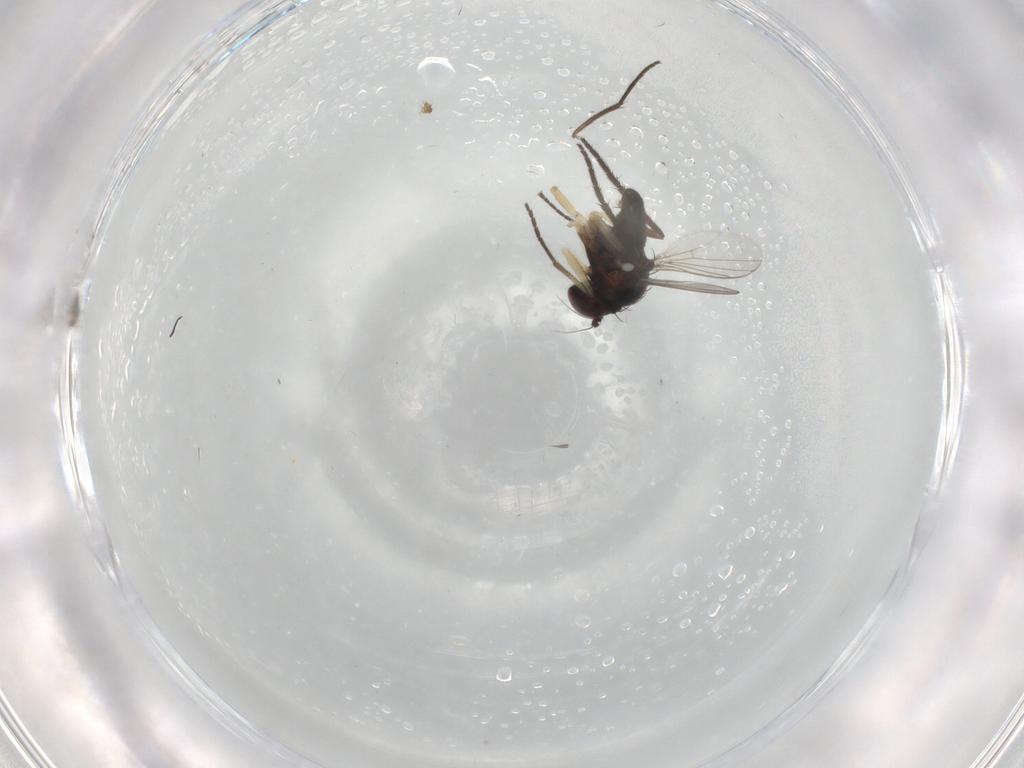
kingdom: Animalia
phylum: Arthropoda
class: Insecta
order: Diptera
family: Dolichopodidae
